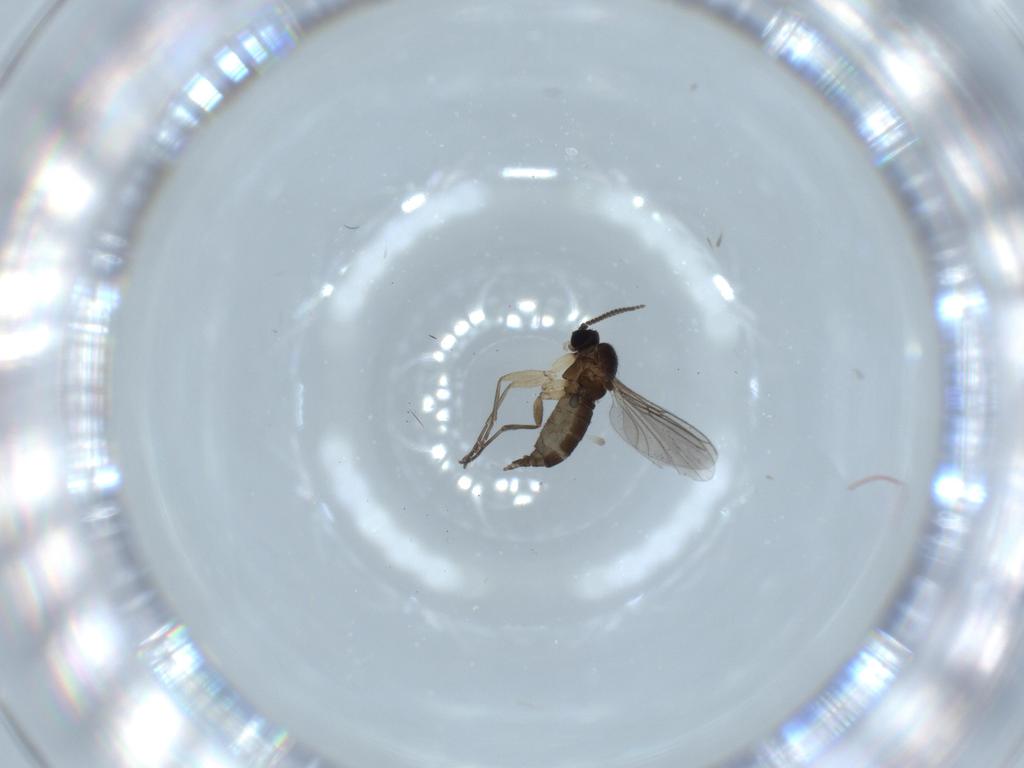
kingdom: Animalia
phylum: Arthropoda
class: Insecta
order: Diptera
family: Sciaridae
